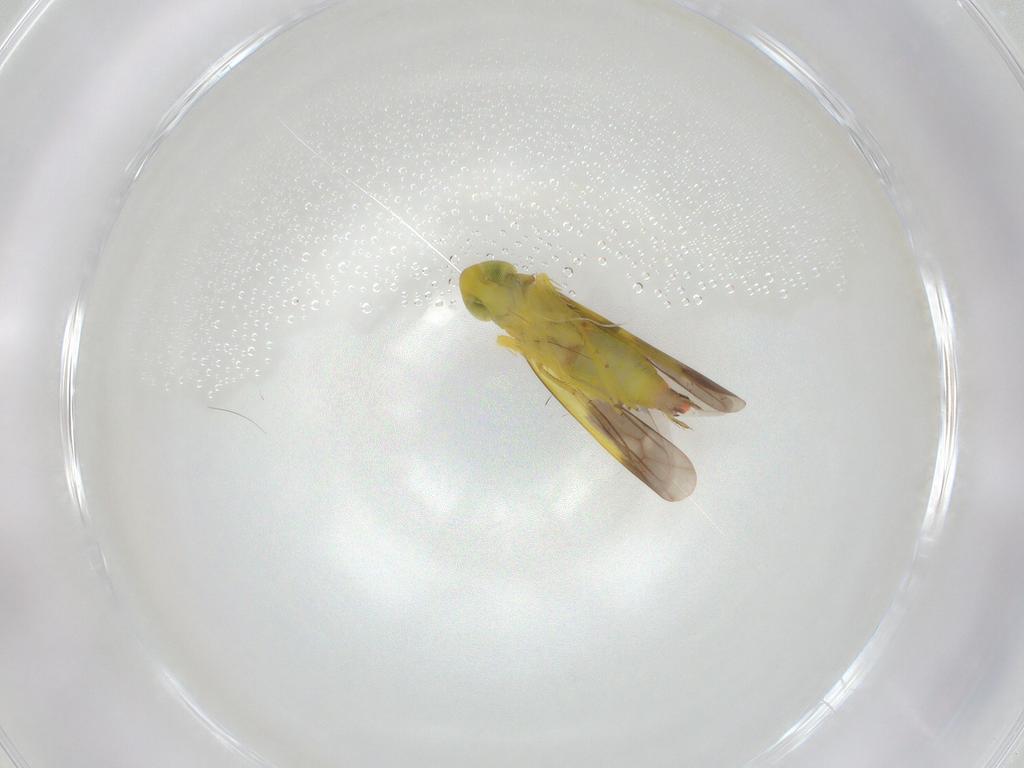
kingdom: Animalia
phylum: Arthropoda
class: Insecta
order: Hemiptera
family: Cicadellidae
